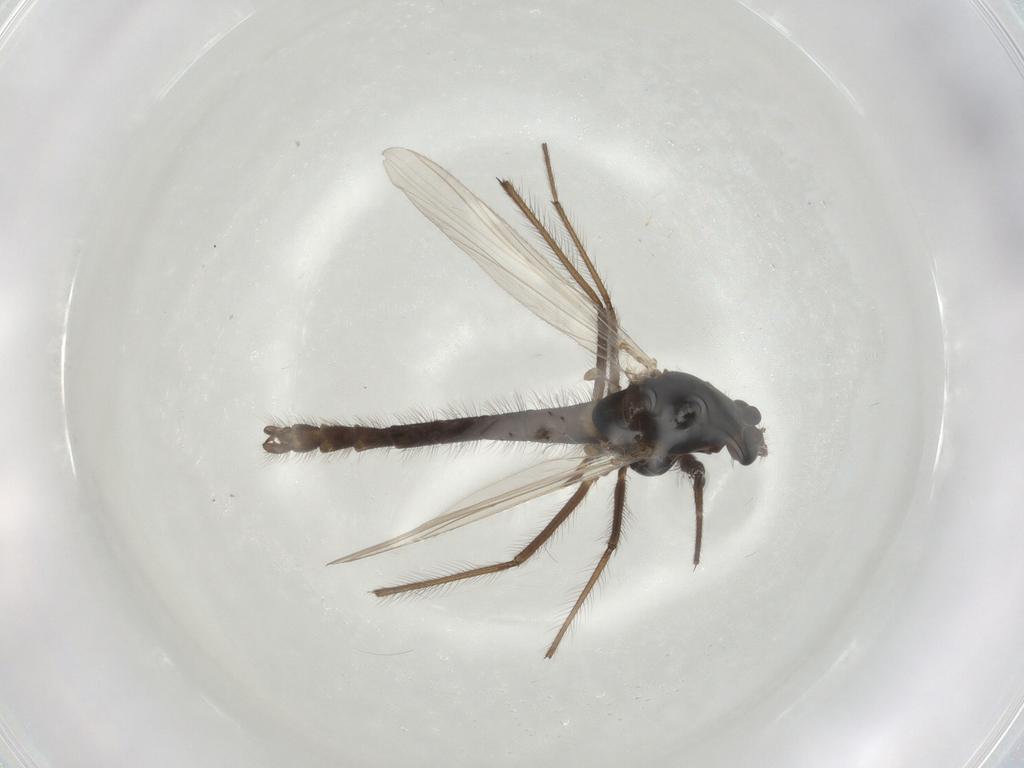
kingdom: Animalia
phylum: Arthropoda
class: Insecta
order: Diptera
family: Chironomidae
